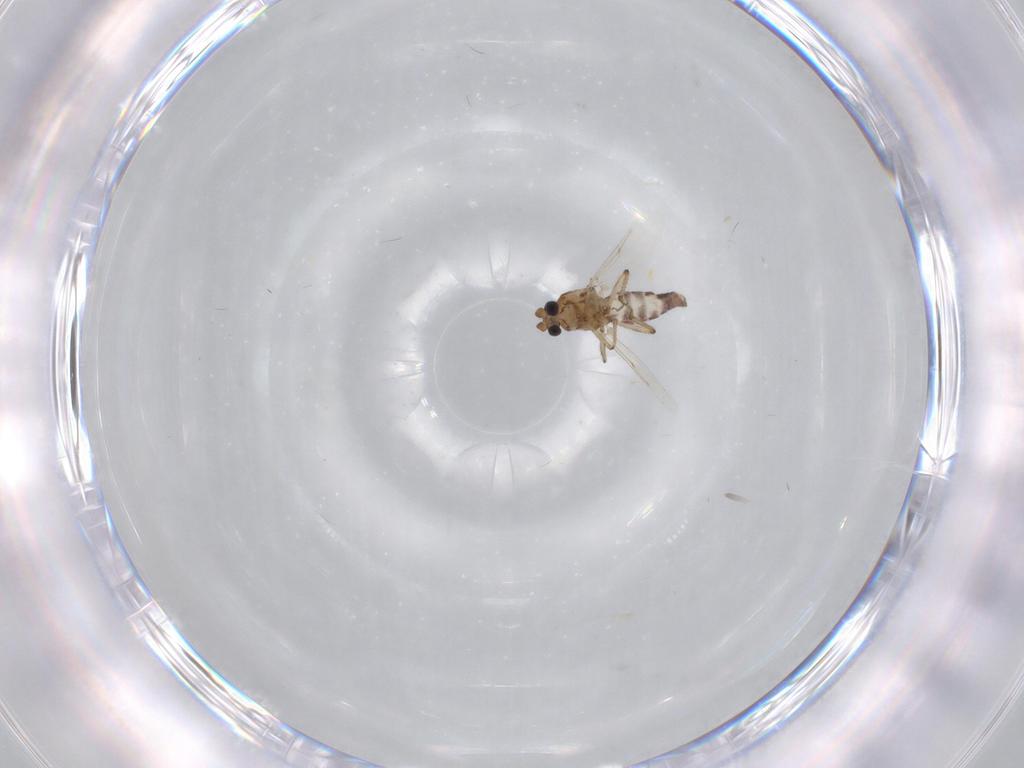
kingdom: Animalia
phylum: Arthropoda
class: Insecta
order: Diptera
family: Ceratopogonidae
